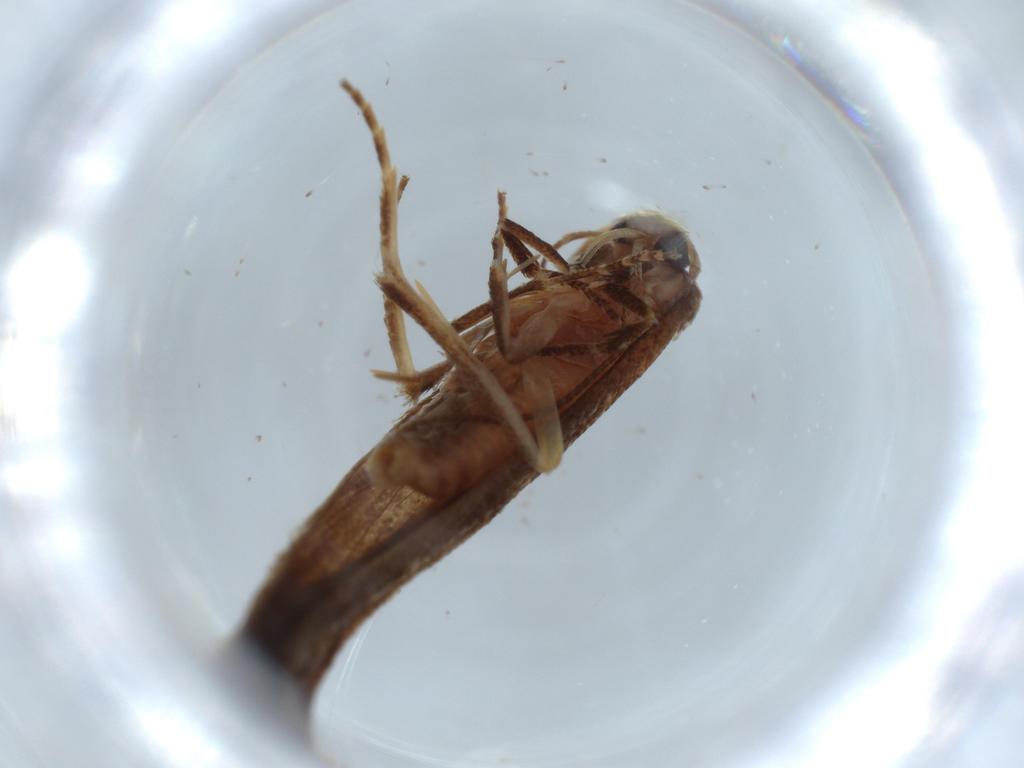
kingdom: Animalia
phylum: Arthropoda
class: Insecta
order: Lepidoptera
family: Stathmopodidae
